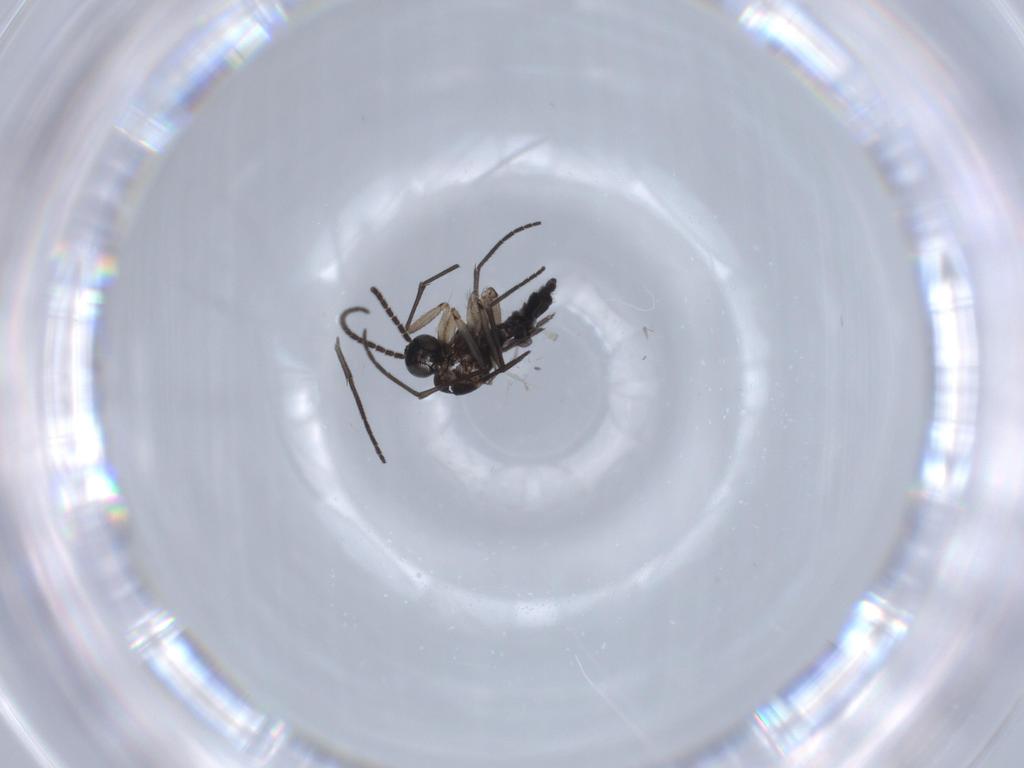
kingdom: Animalia
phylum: Arthropoda
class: Insecta
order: Diptera
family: Sciaridae
